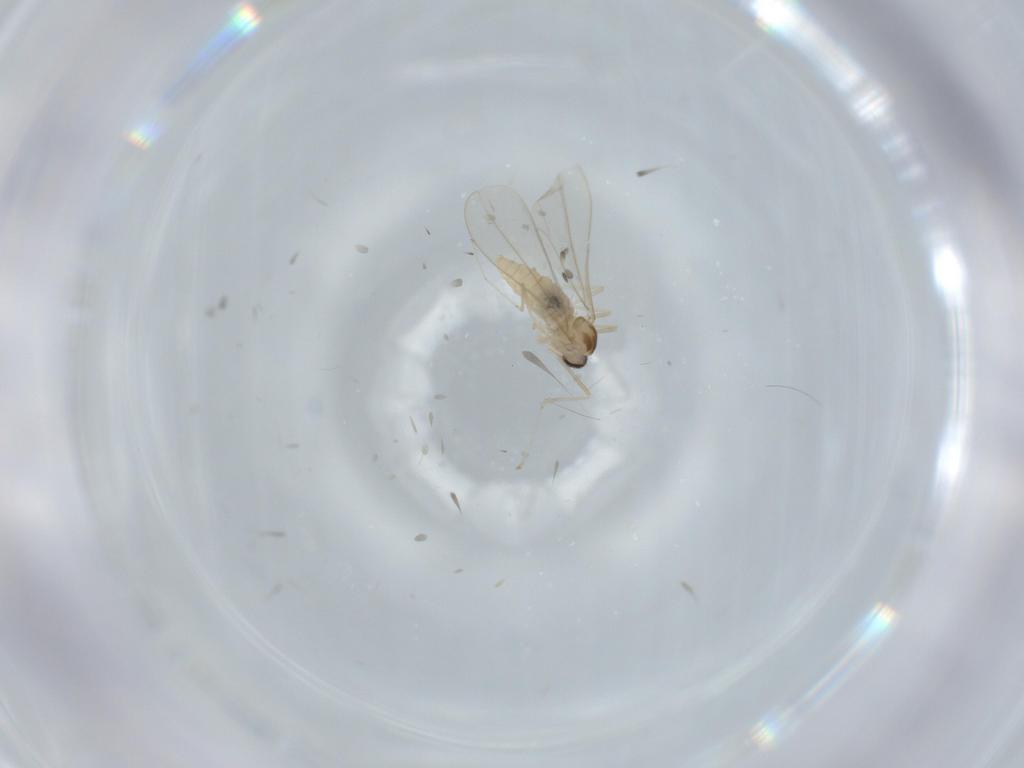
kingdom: Animalia
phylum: Arthropoda
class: Insecta
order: Diptera
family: Cecidomyiidae
